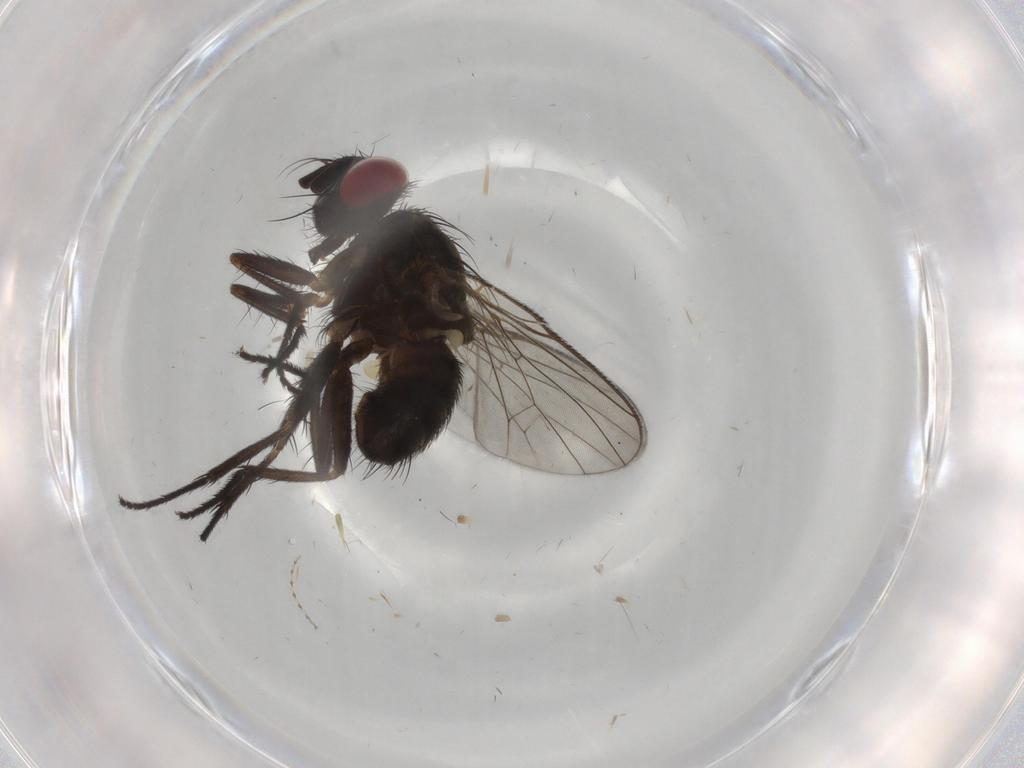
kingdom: Animalia
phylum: Arthropoda
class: Insecta
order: Diptera
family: Muscidae
